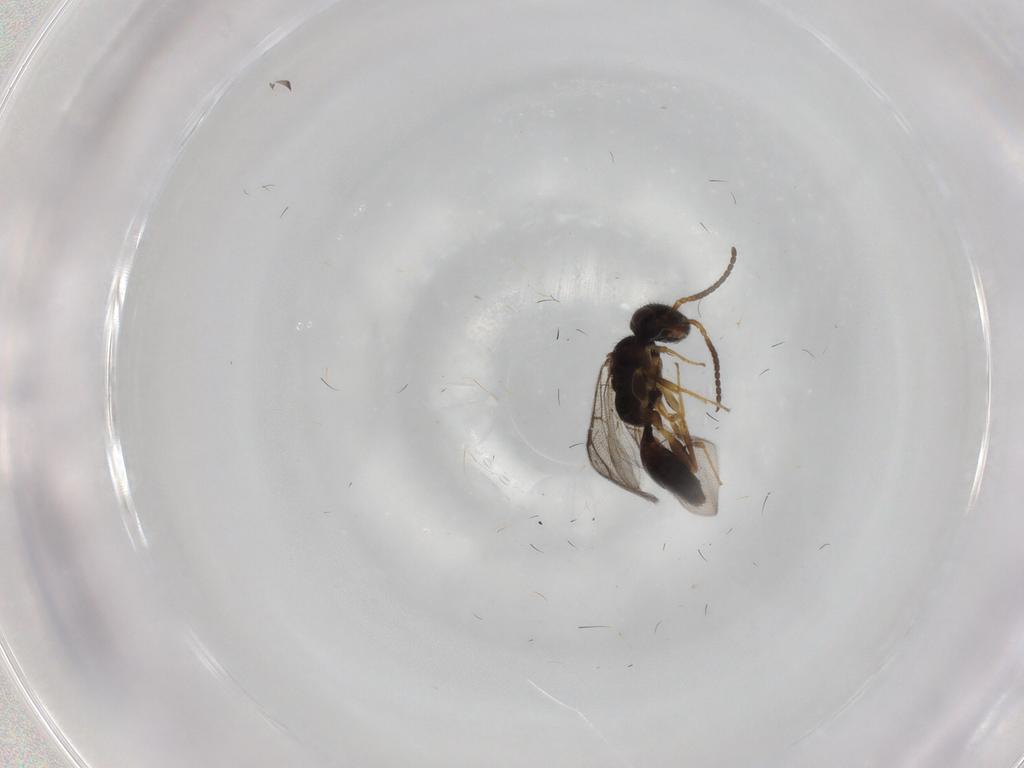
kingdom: Animalia
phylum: Arthropoda
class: Insecta
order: Hymenoptera
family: Bethylidae
